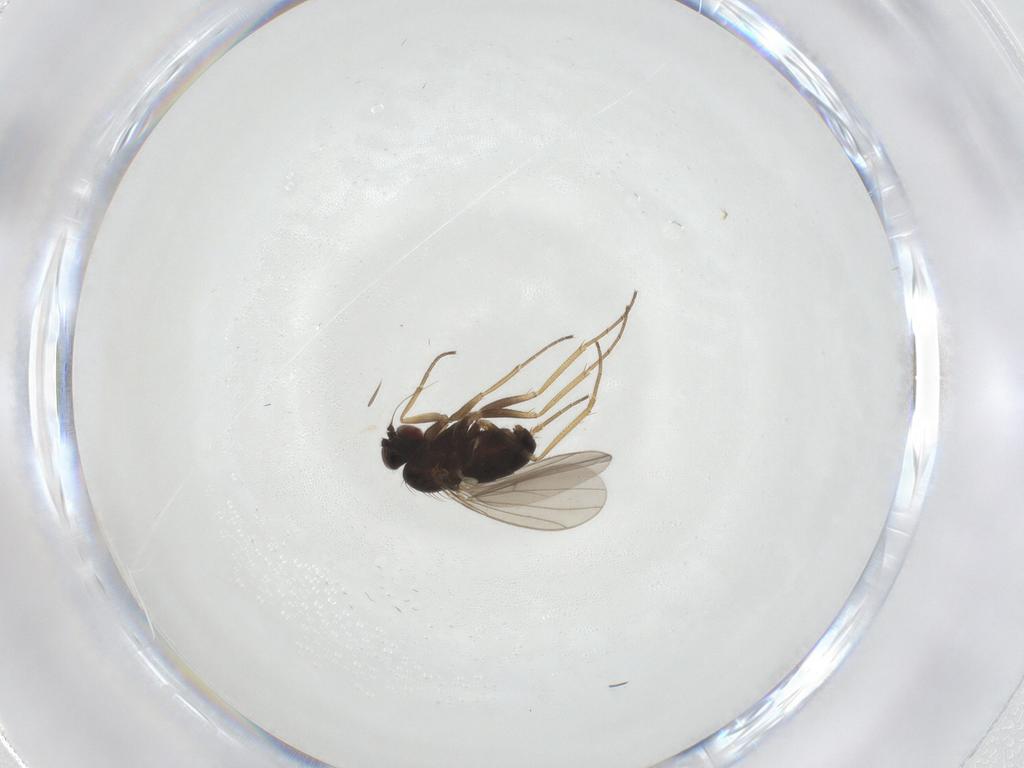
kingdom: Animalia
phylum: Arthropoda
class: Insecta
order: Diptera
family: Dolichopodidae
